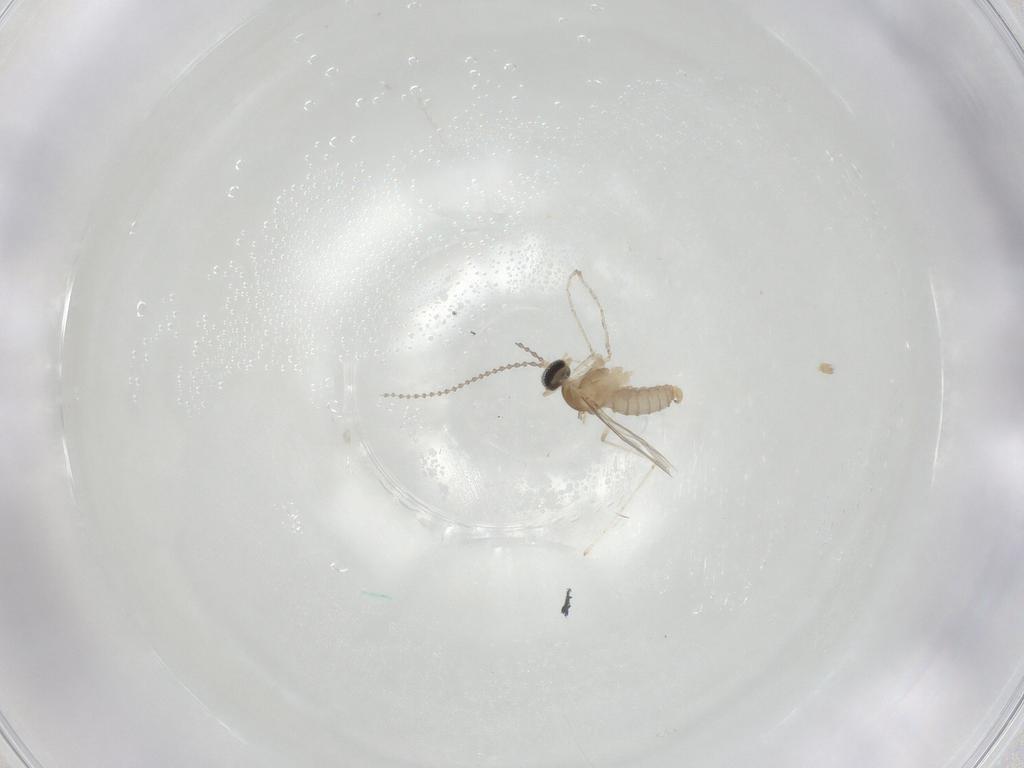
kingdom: Animalia
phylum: Arthropoda
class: Insecta
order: Diptera
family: Cecidomyiidae
